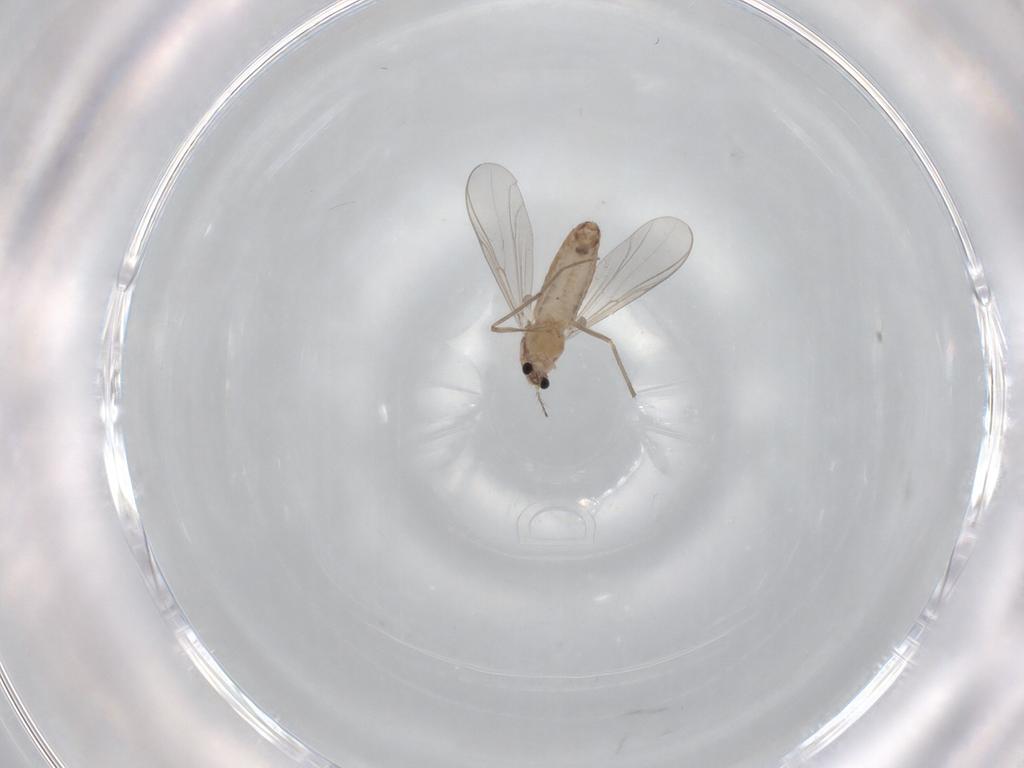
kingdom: Animalia
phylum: Arthropoda
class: Insecta
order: Diptera
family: Chironomidae
